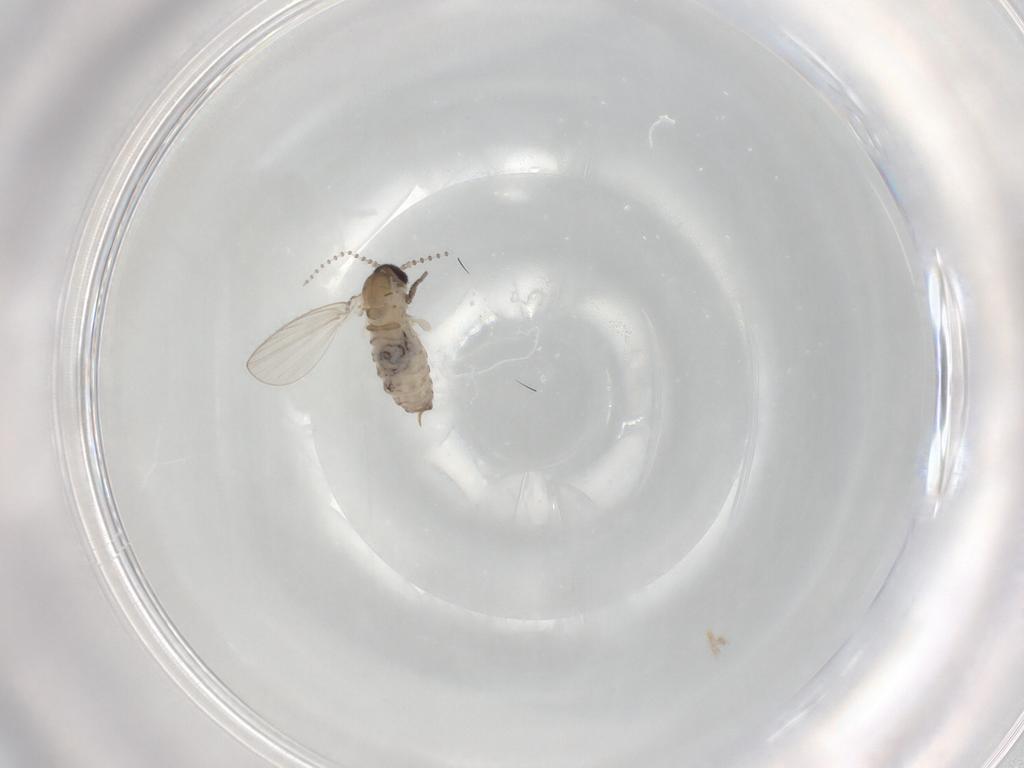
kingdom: Animalia
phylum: Arthropoda
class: Insecta
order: Diptera
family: Psychodidae
